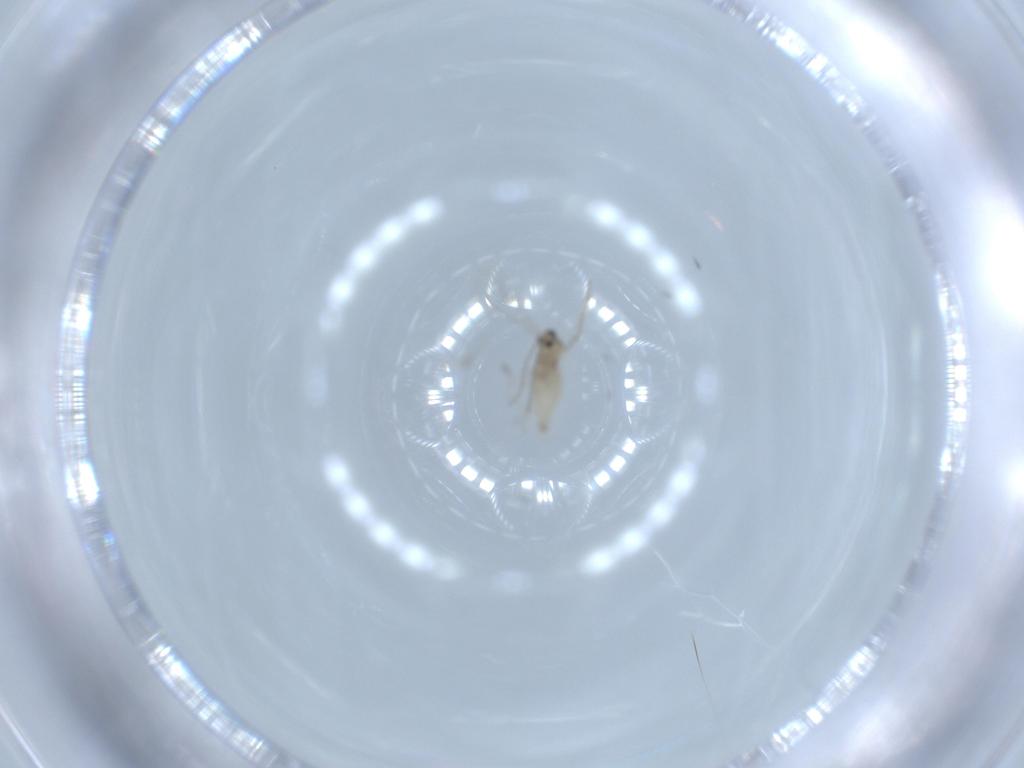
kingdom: Animalia
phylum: Arthropoda
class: Insecta
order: Diptera
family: Cecidomyiidae
